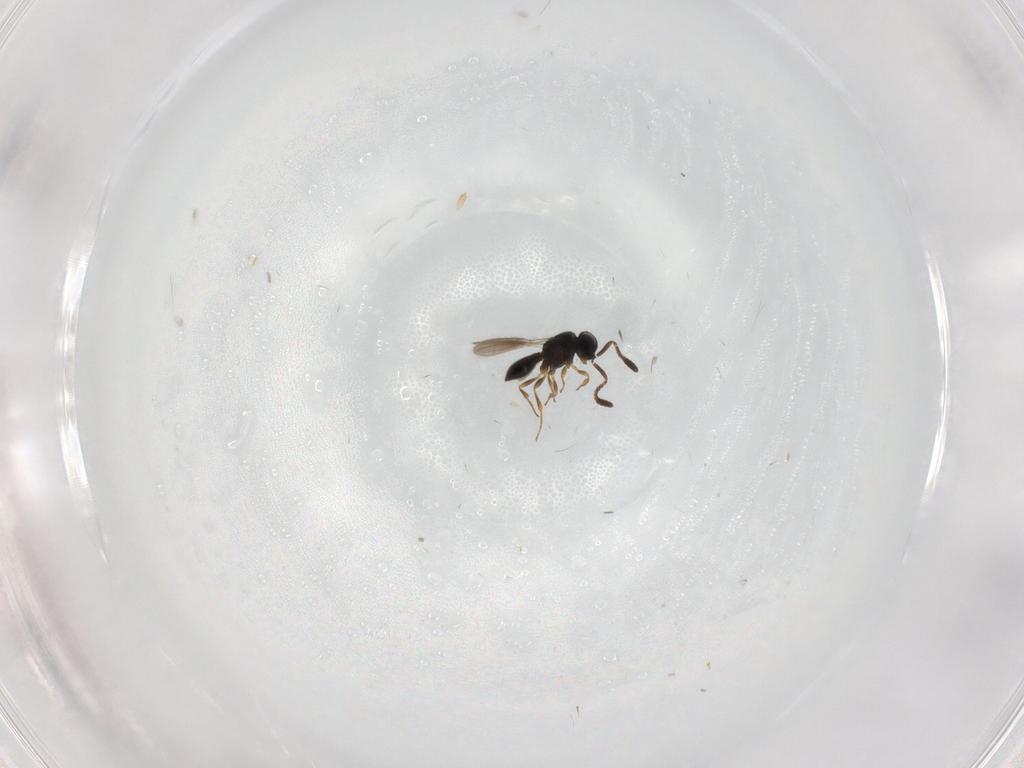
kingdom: Animalia
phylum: Arthropoda
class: Insecta
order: Hymenoptera
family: Scelionidae
